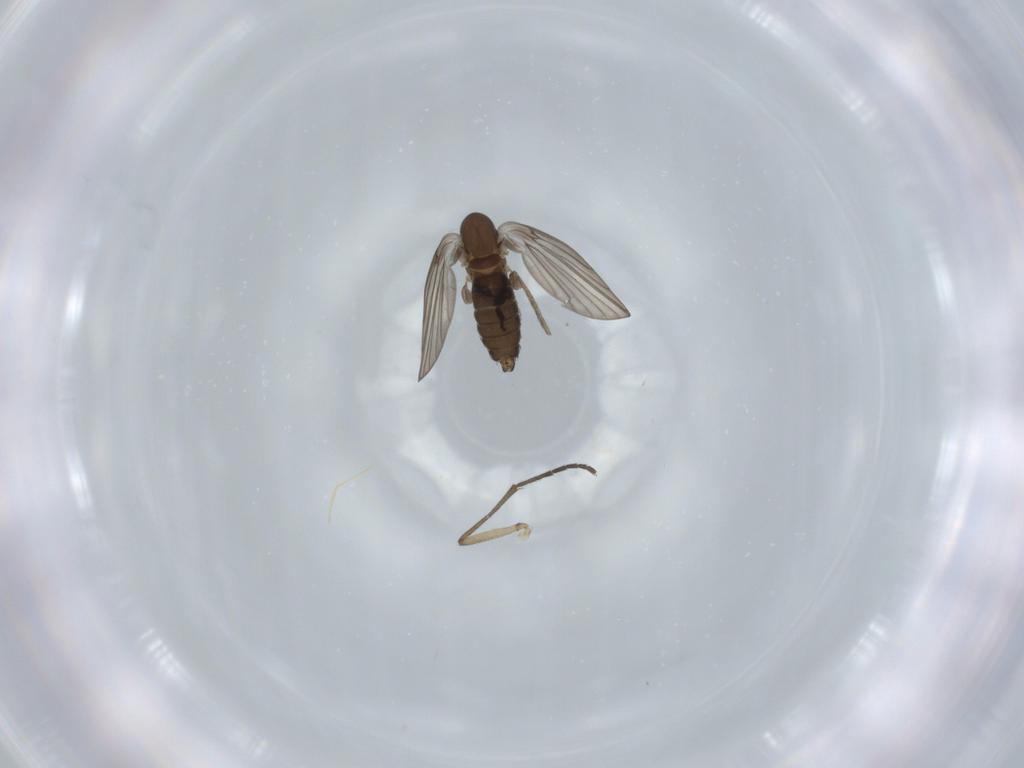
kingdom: Animalia
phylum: Arthropoda
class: Insecta
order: Diptera
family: Psychodidae
